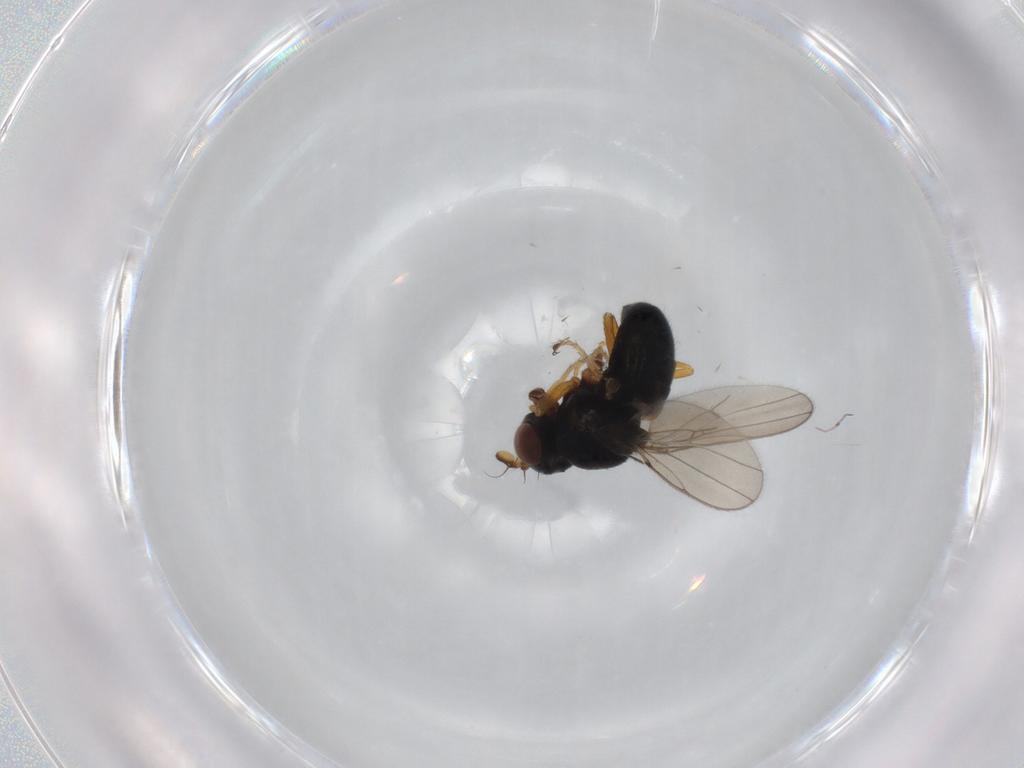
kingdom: Animalia
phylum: Arthropoda
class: Insecta
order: Diptera
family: Ephydridae
